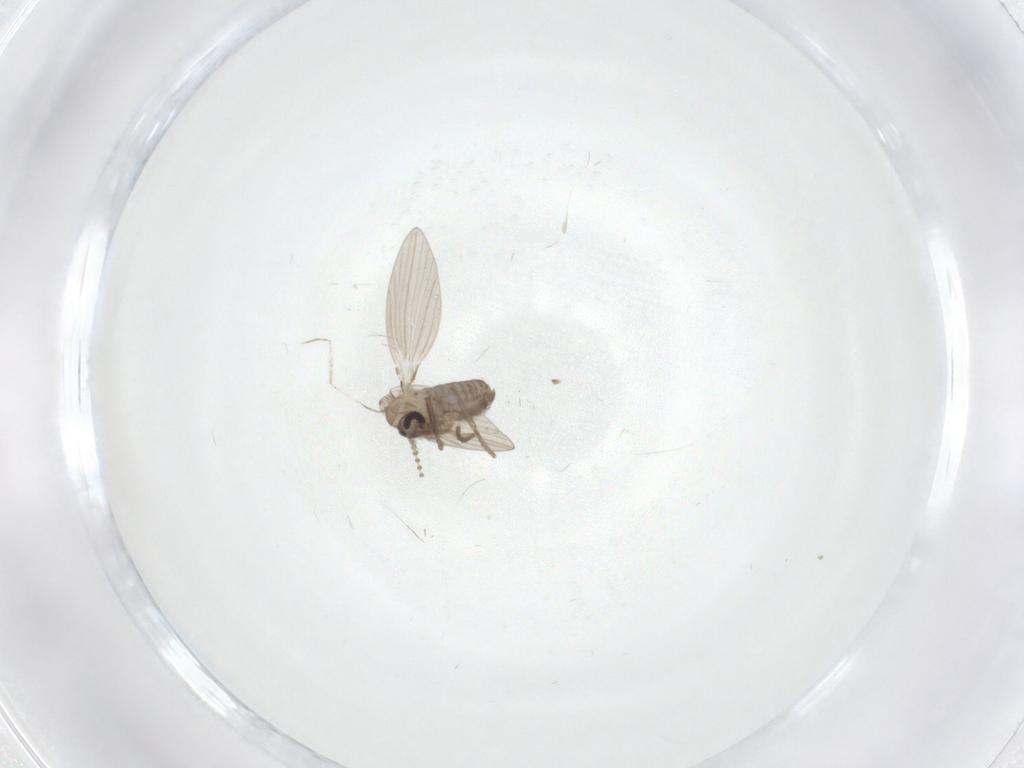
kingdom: Animalia
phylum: Arthropoda
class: Insecta
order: Diptera
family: Cecidomyiidae
